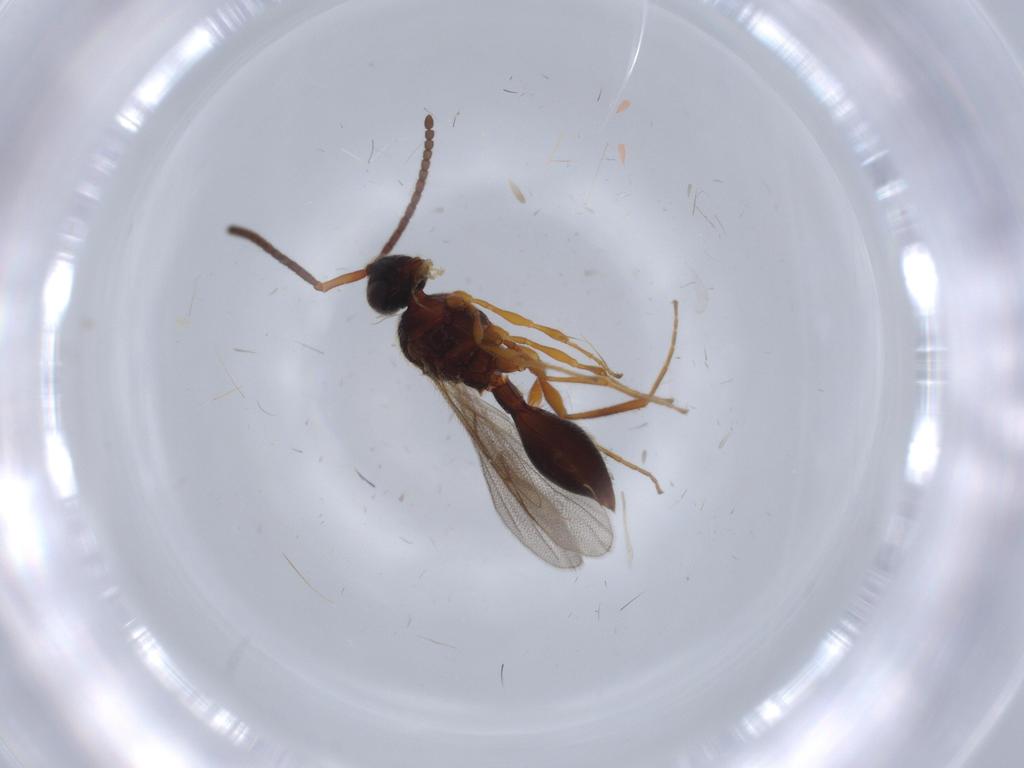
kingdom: Animalia
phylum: Arthropoda
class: Insecta
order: Hymenoptera
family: Diapriidae
